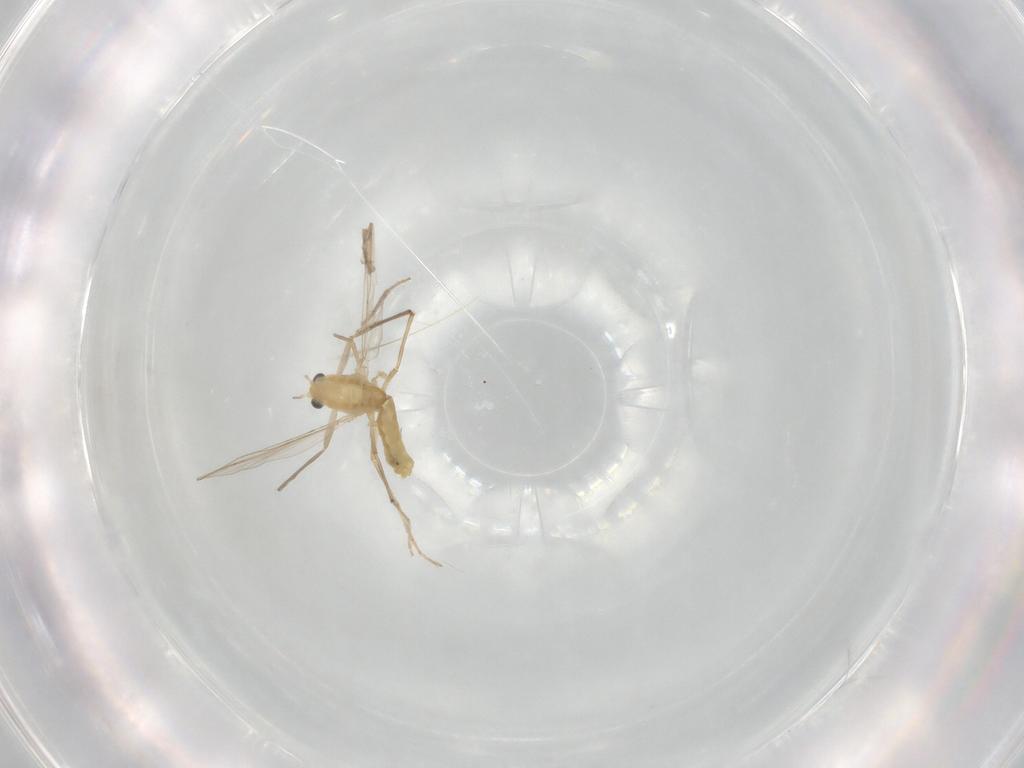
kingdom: Animalia
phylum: Arthropoda
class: Insecta
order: Diptera
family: Chironomidae
